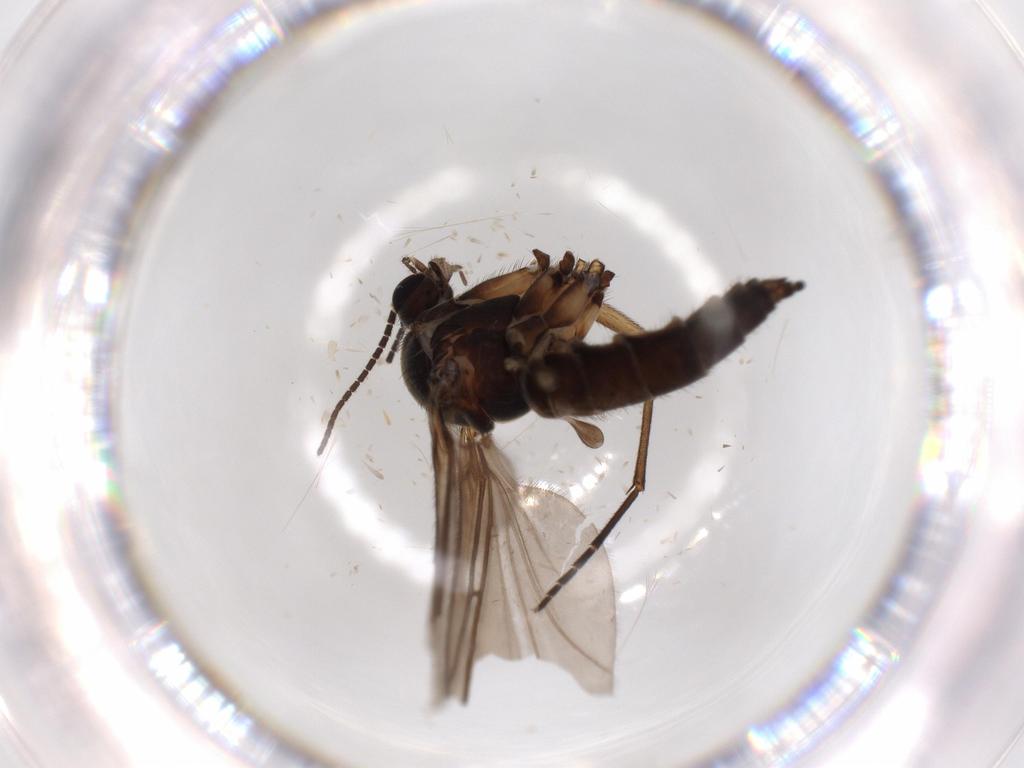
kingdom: Animalia
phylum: Arthropoda
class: Insecta
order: Diptera
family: Sciaridae
